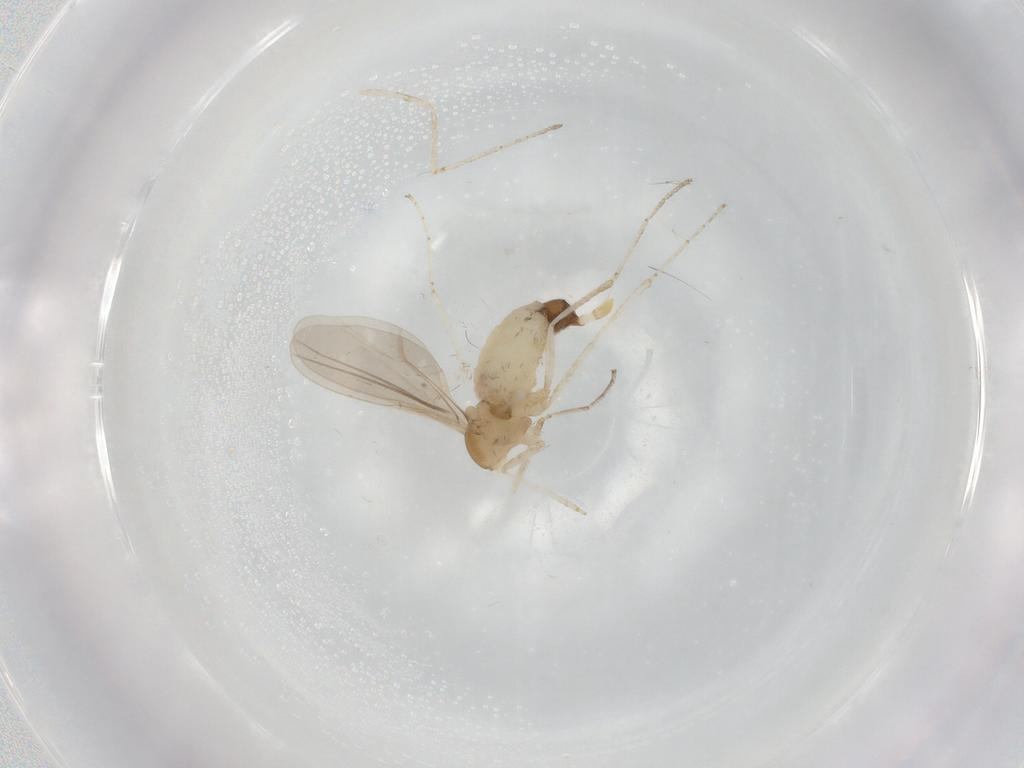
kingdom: Animalia
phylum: Arthropoda
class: Insecta
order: Diptera
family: Cecidomyiidae
